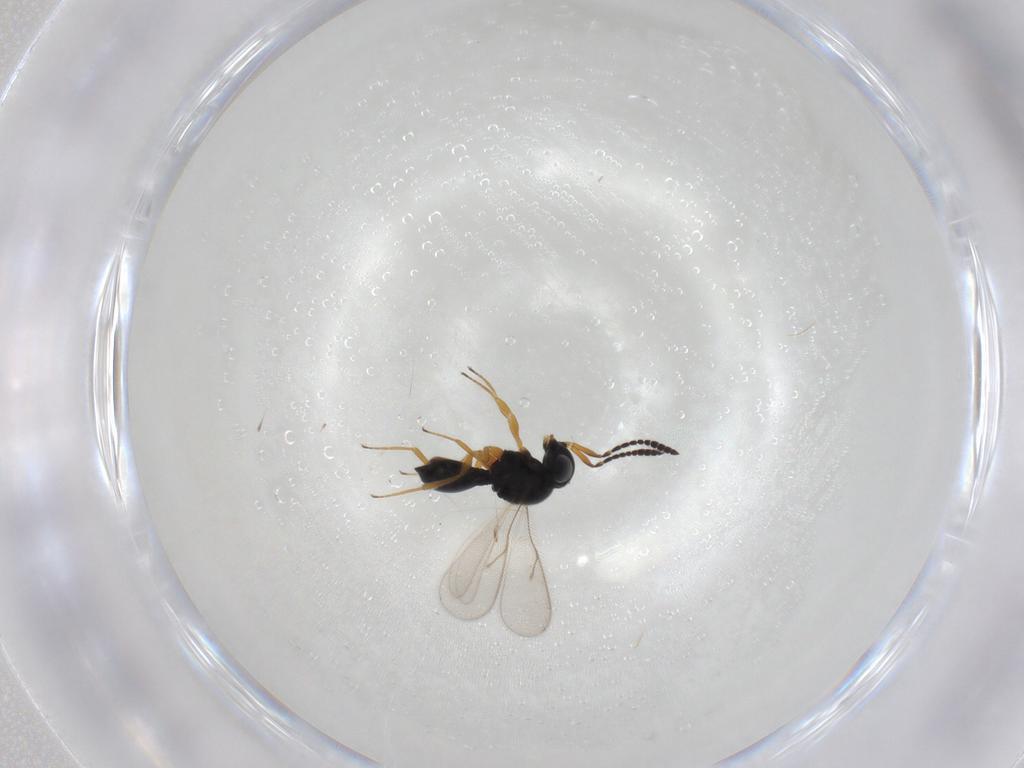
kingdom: Animalia
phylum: Arthropoda
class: Insecta
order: Hymenoptera
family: Scelionidae
